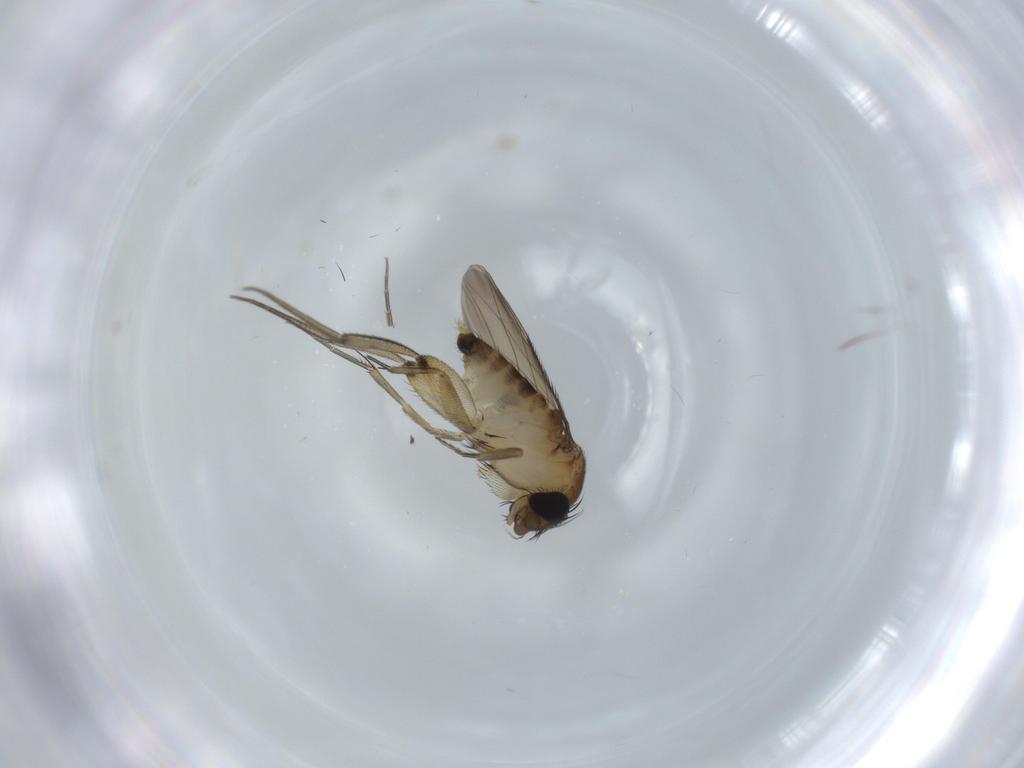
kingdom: Animalia
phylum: Arthropoda
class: Insecta
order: Diptera
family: Phoridae
